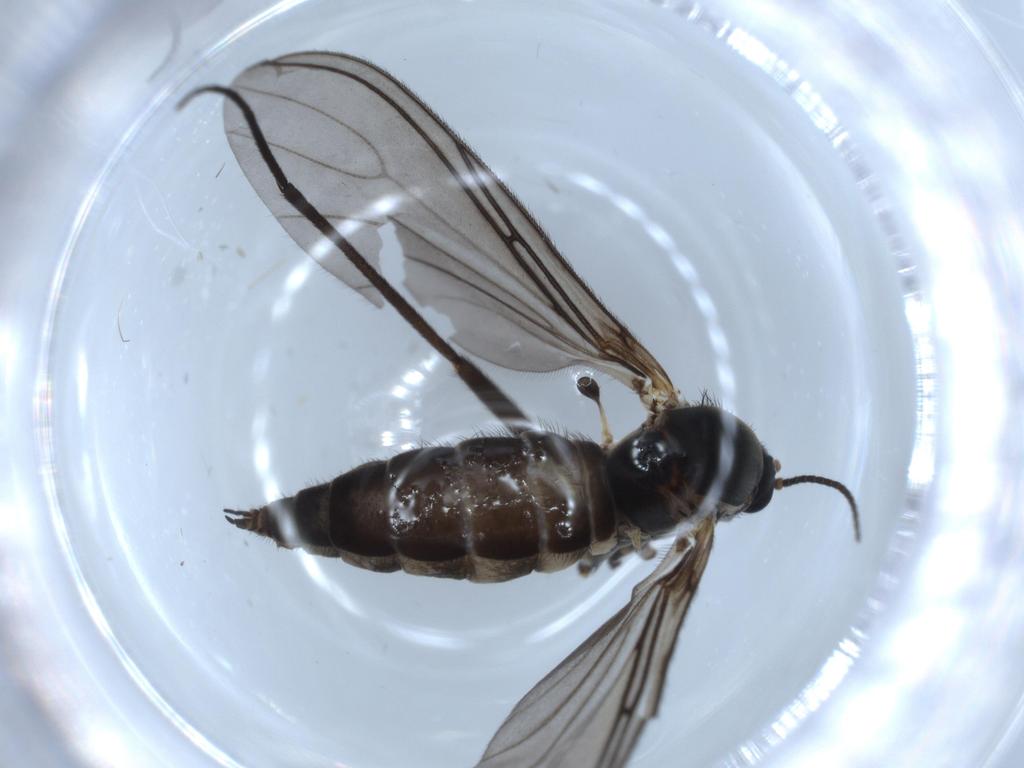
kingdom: Animalia
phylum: Arthropoda
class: Insecta
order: Diptera
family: Sciaridae
